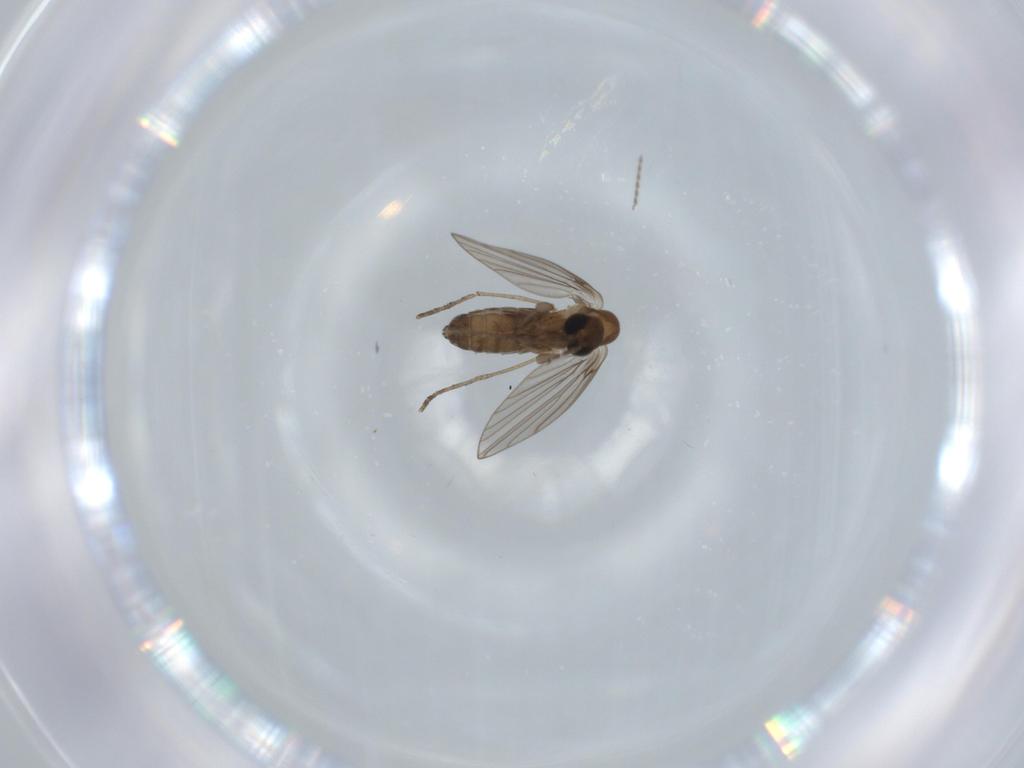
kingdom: Animalia
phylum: Arthropoda
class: Insecta
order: Diptera
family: Psychodidae
